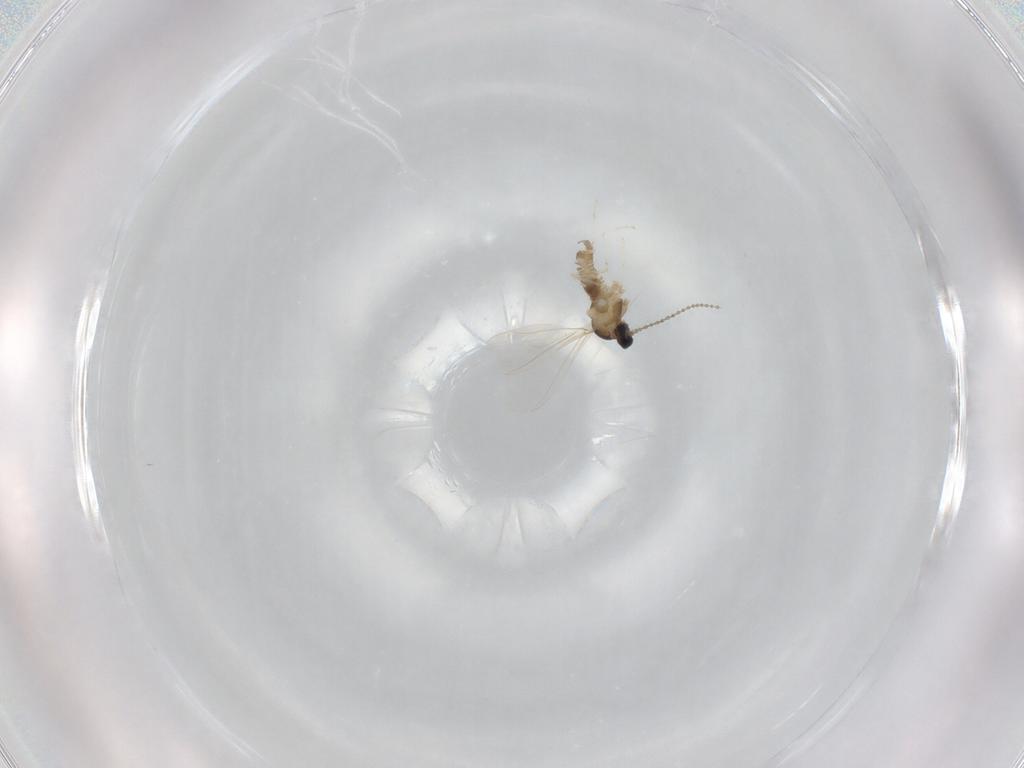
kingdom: Animalia
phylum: Arthropoda
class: Insecta
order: Diptera
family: Cecidomyiidae
